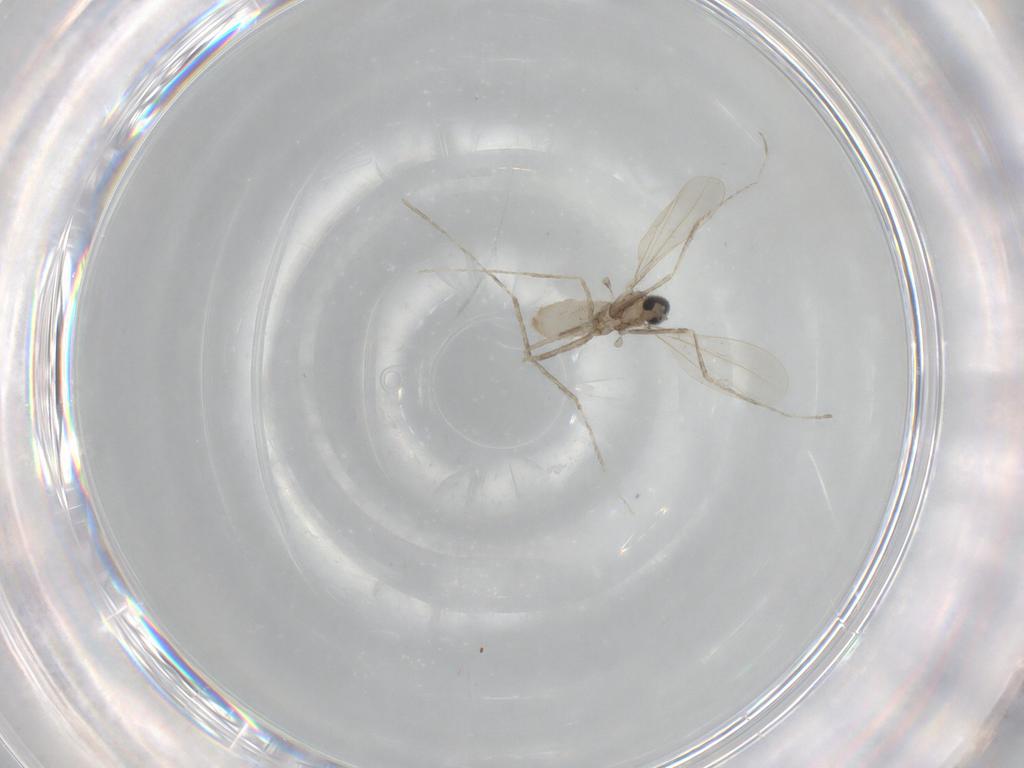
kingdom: Animalia
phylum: Arthropoda
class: Insecta
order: Diptera
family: Cecidomyiidae
